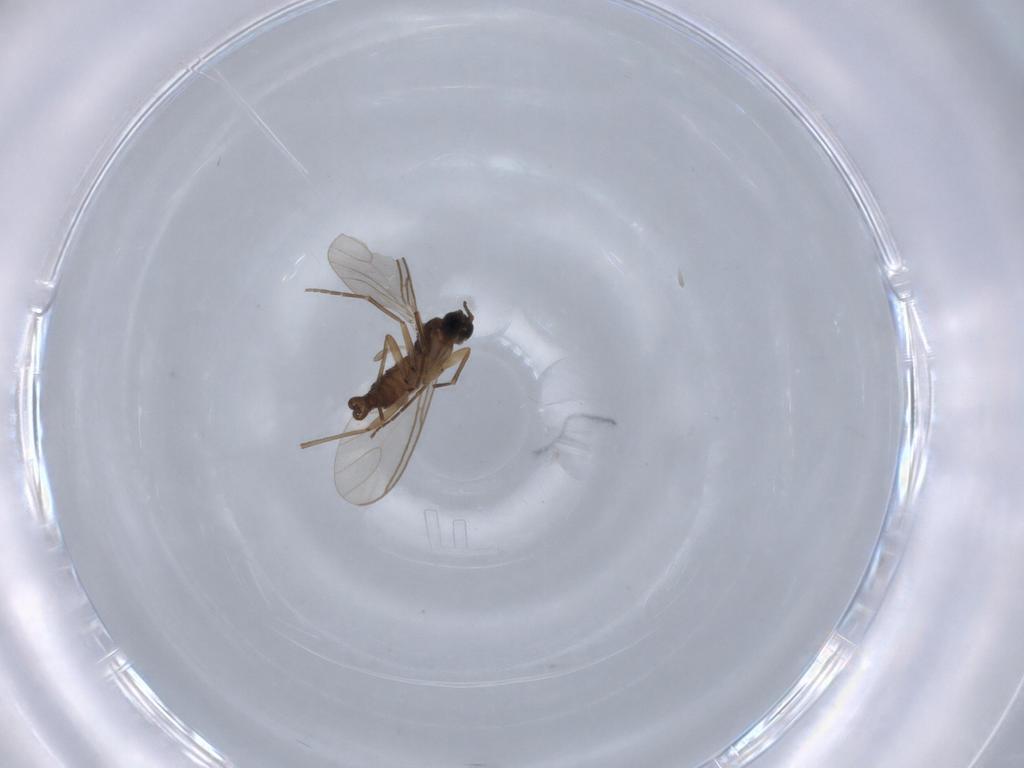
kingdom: Animalia
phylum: Arthropoda
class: Insecta
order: Diptera
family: Sciaridae
